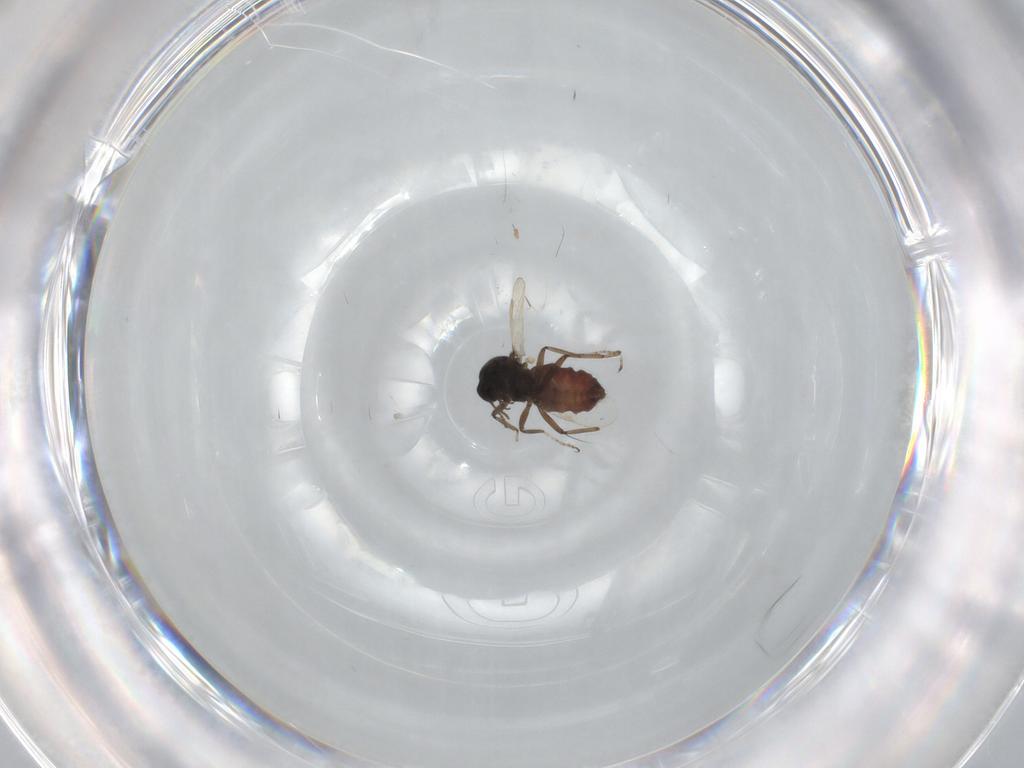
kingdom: Animalia
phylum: Arthropoda
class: Insecta
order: Diptera
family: Ceratopogonidae
